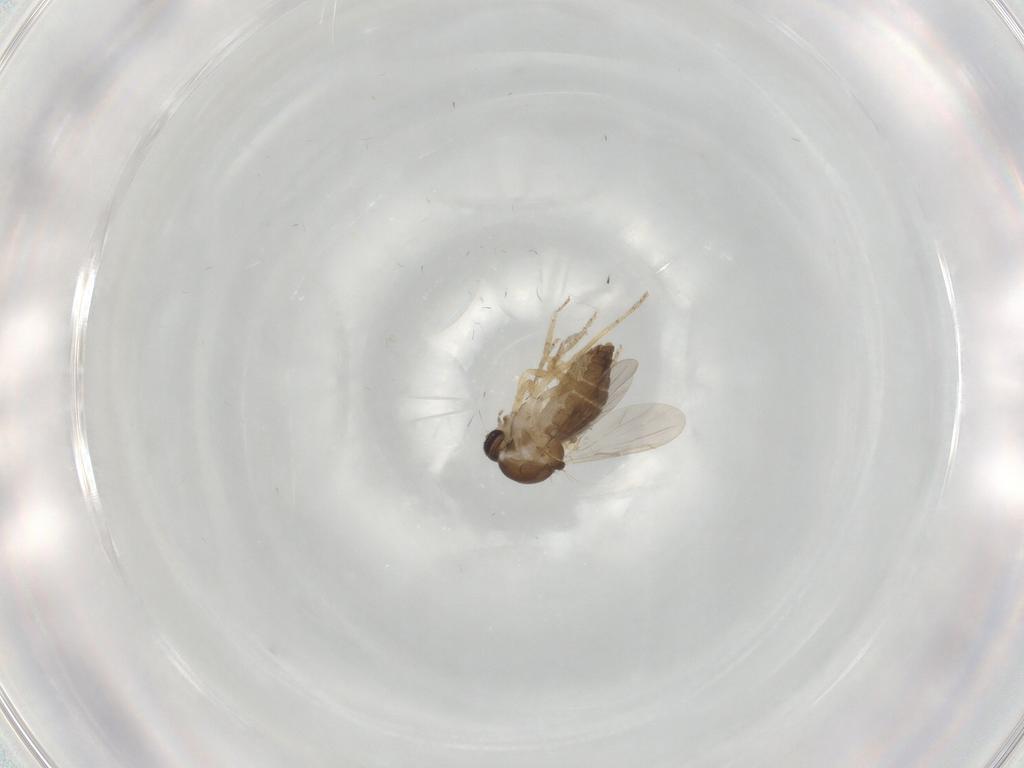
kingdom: Animalia
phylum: Arthropoda
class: Insecta
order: Diptera
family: Ceratopogonidae
